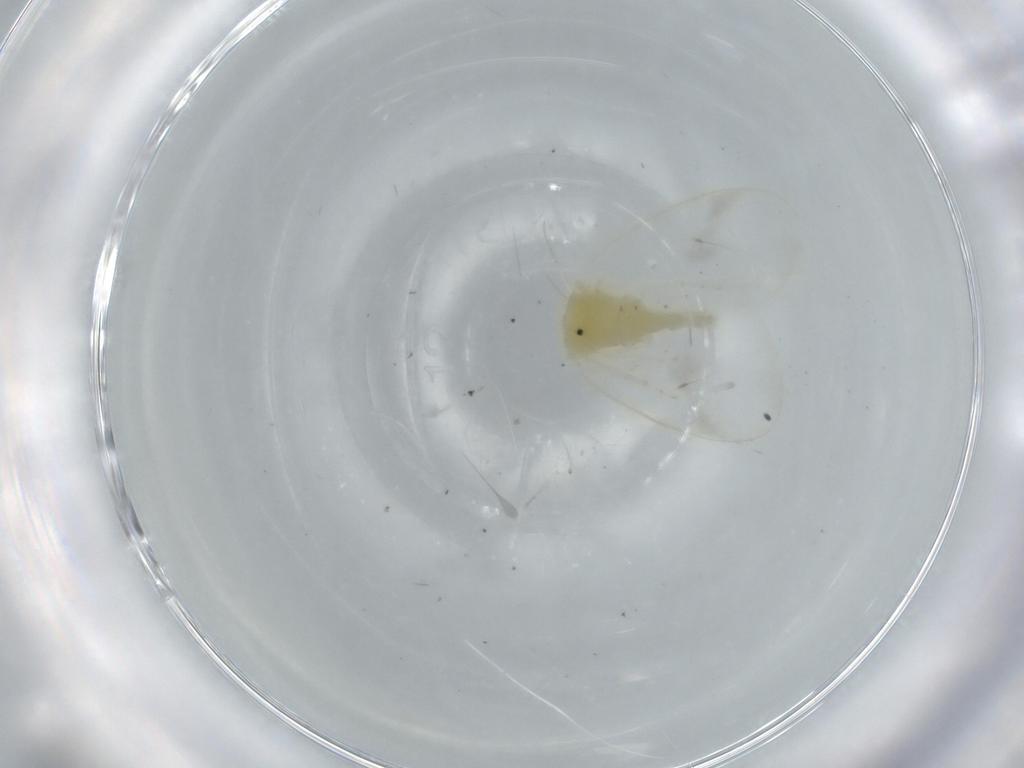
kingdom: Animalia
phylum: Arthropoda
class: Insecta
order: Hemiptera
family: Aleyrodidae
